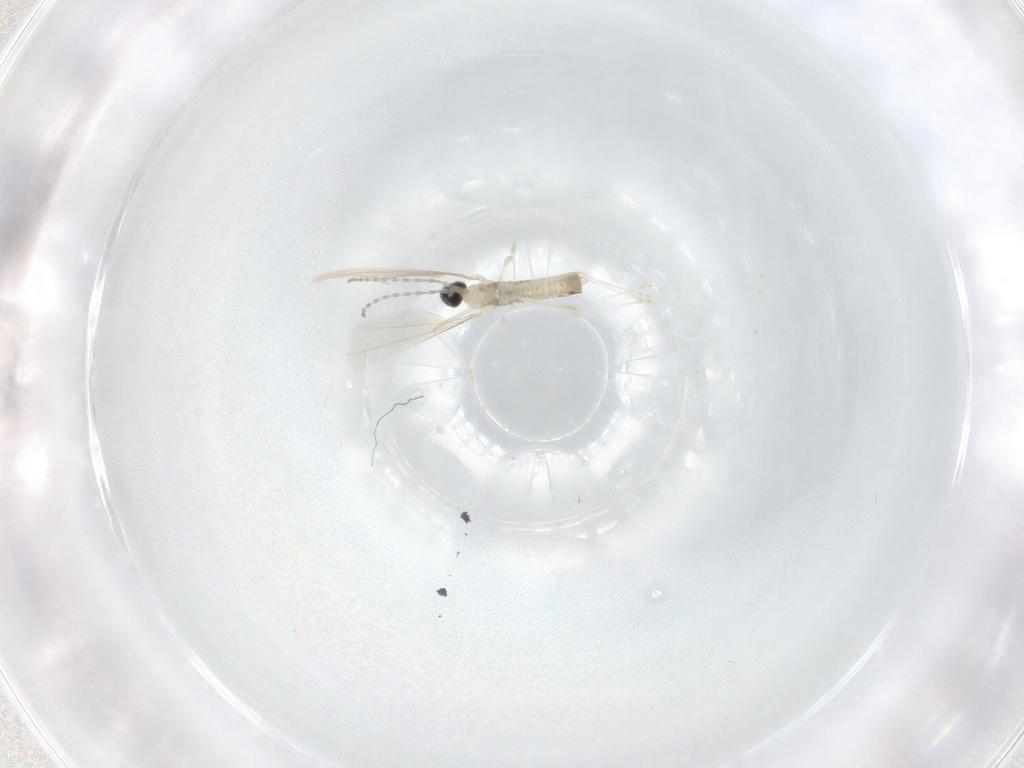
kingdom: Animalia
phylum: Arthropoda
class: Insecta
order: Diptera
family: Cecidomyiidae
